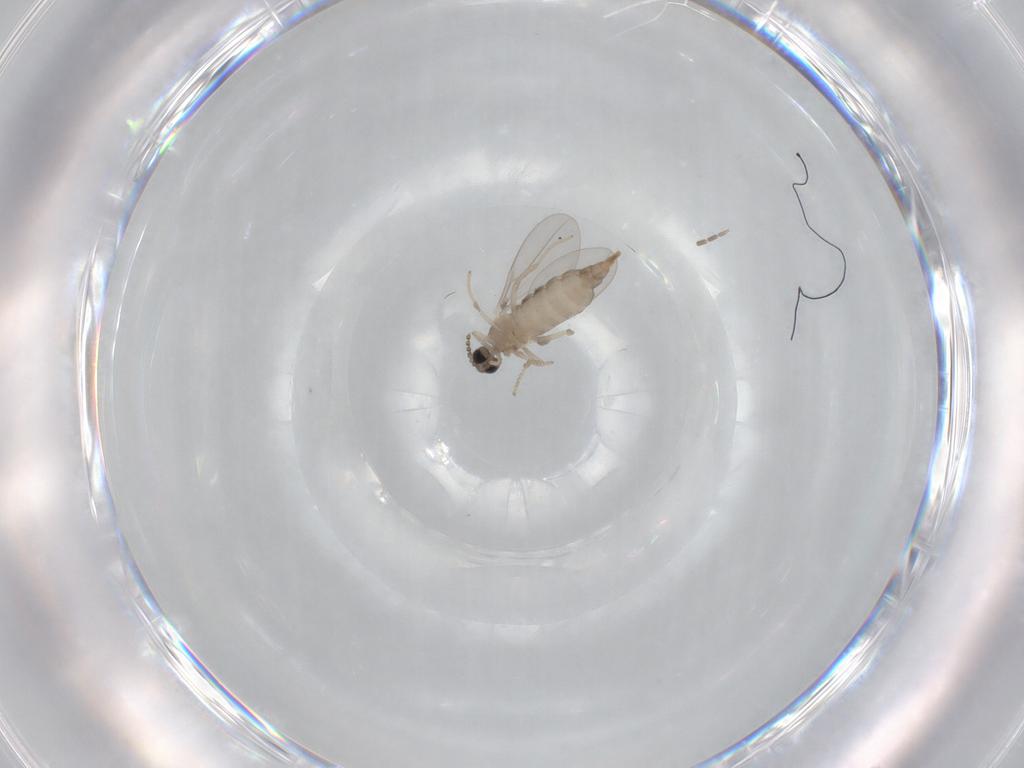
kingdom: Animalia
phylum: Arthropoda
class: Insecta
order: Diptera
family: Sciaridae
